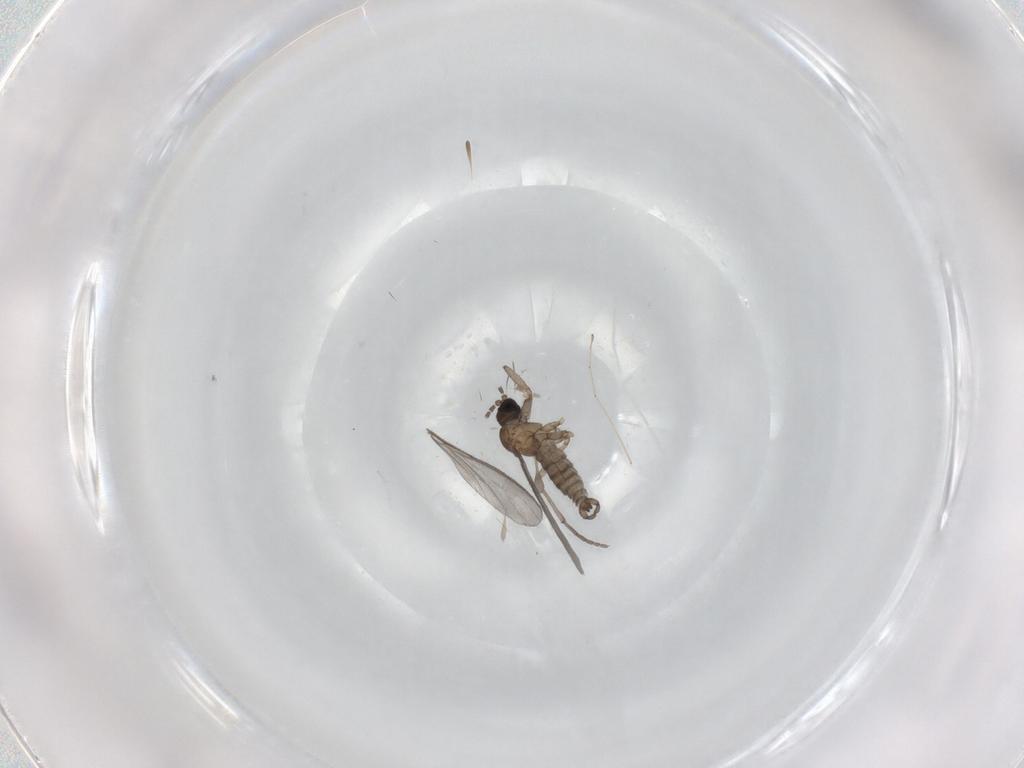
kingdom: Animalia
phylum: Arthropoda
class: Insecta
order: Diptera
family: Sciaridae
